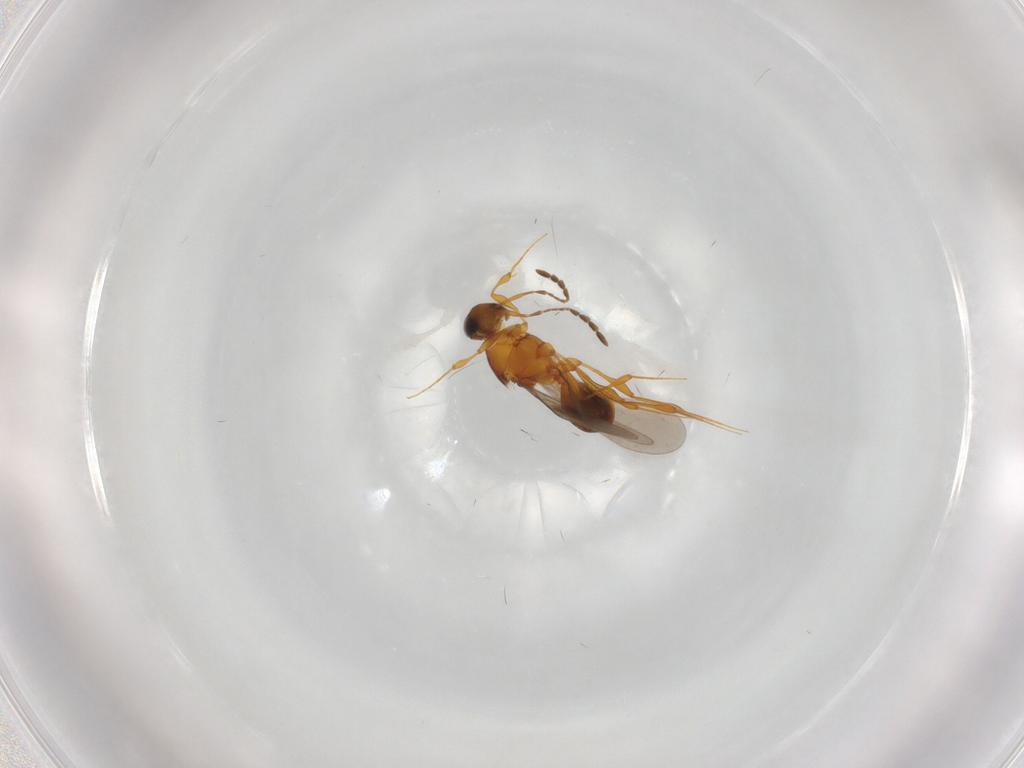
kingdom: Animalia
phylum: Arthropoda
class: Insecta
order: Hymenoptera
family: Platygastridae
